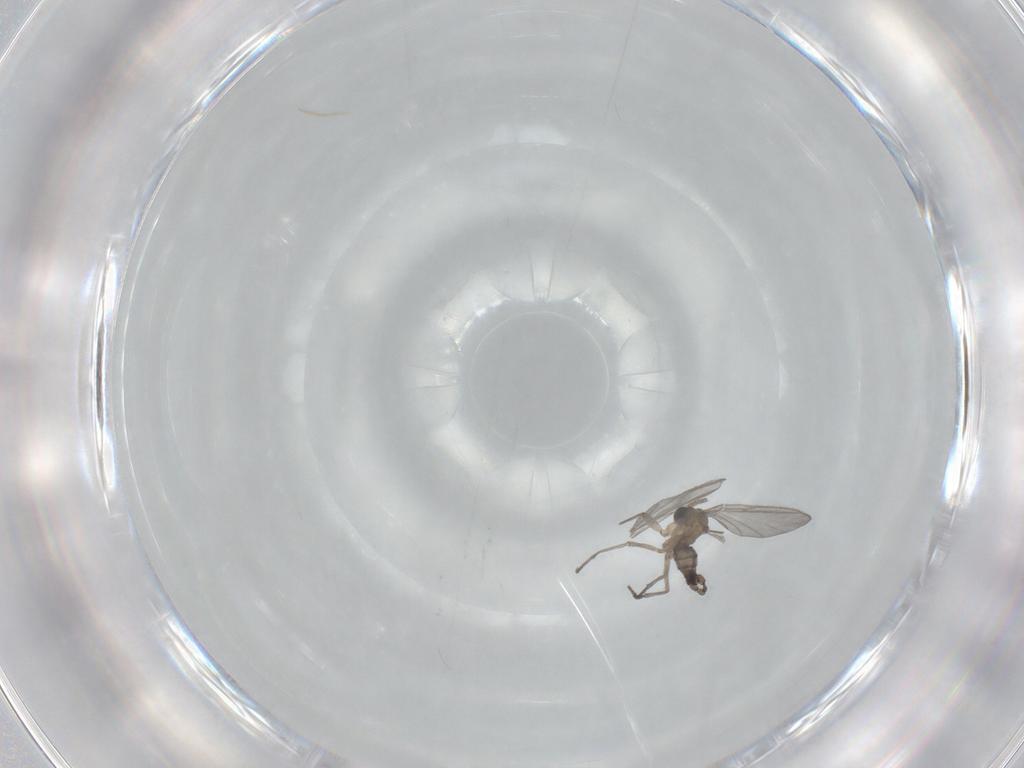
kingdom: Animalia
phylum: Arthropoda
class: Insecta
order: Diptera
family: Sciaridae
